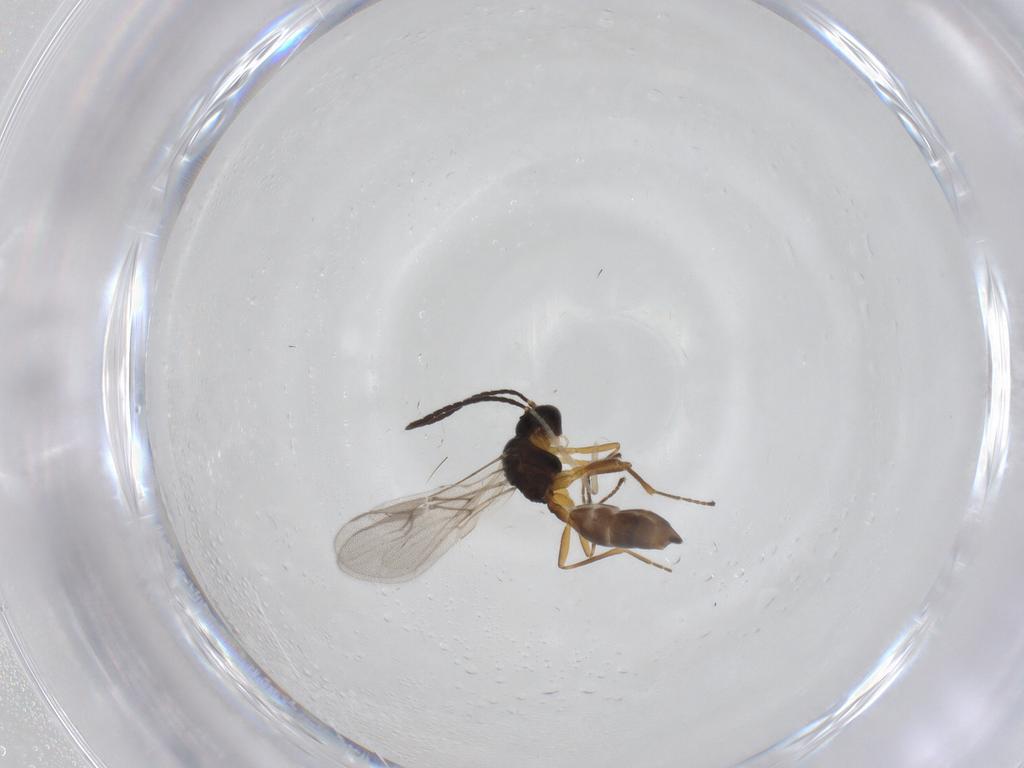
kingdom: Animalia
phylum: Arthropoda
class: Insecta
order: Hymenoptera
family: Braconidae
